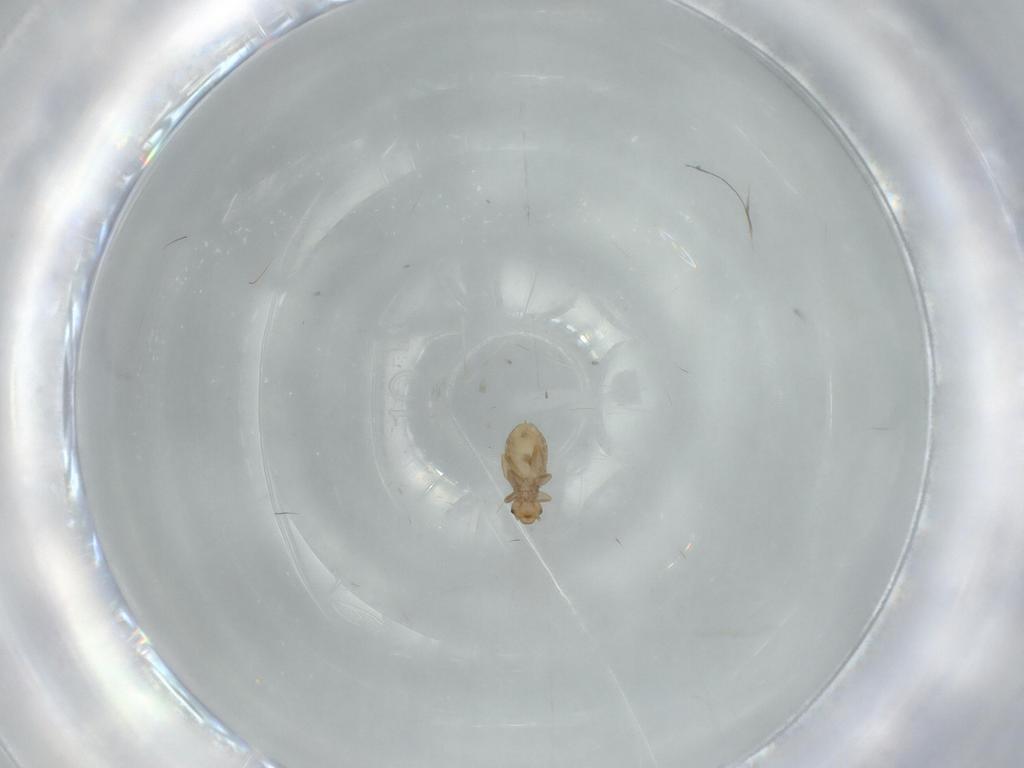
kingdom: Animalia
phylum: Arthropoda
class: Insecta
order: Psocodea
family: Liposcelididae
